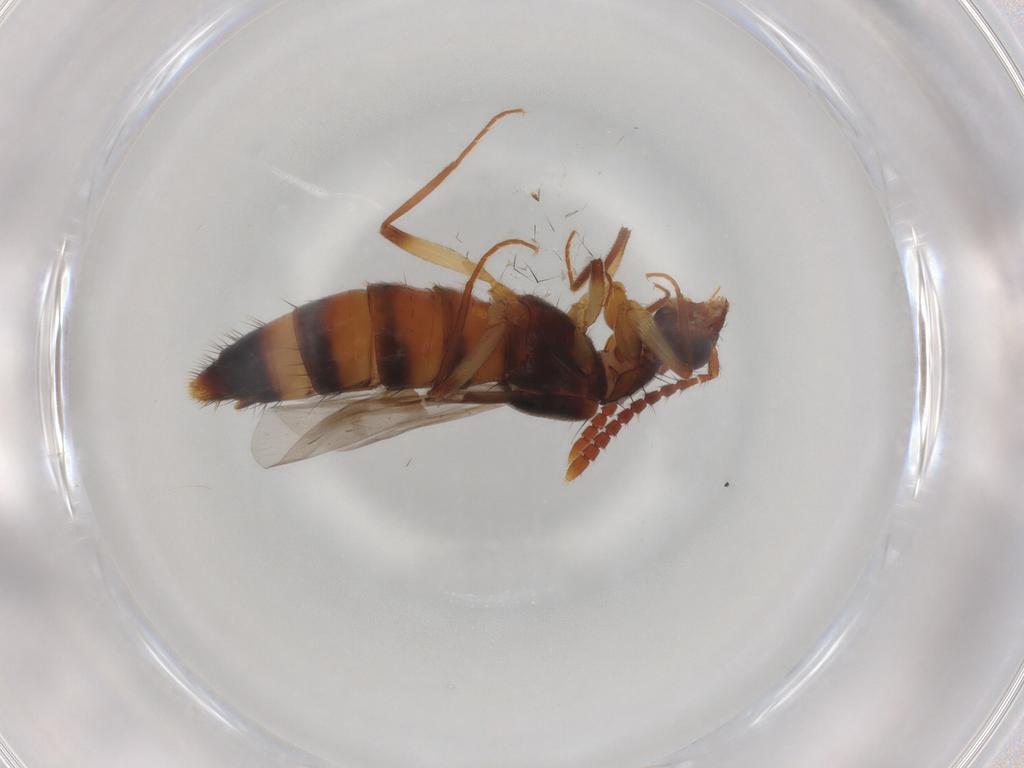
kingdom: Animalia
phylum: Arthropoda
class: Insecta
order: Coleoptera
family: Staphylinidae
